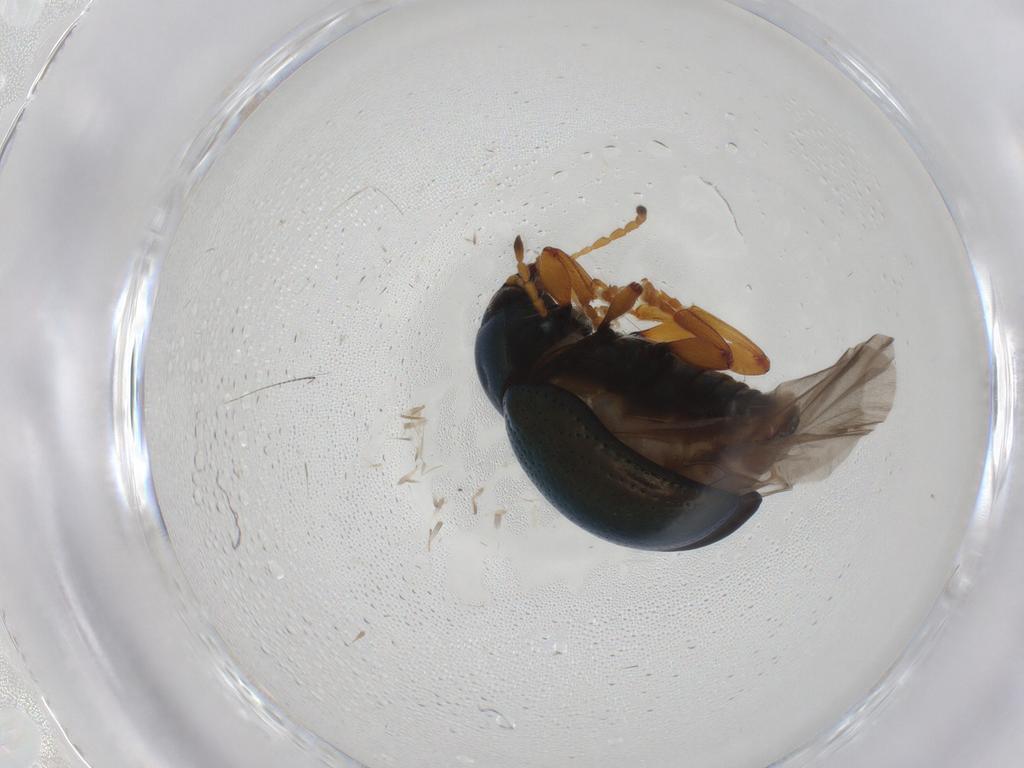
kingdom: Animalia
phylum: Arthropoda
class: Insecta
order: Coleoptera
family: Chrysomelidae
